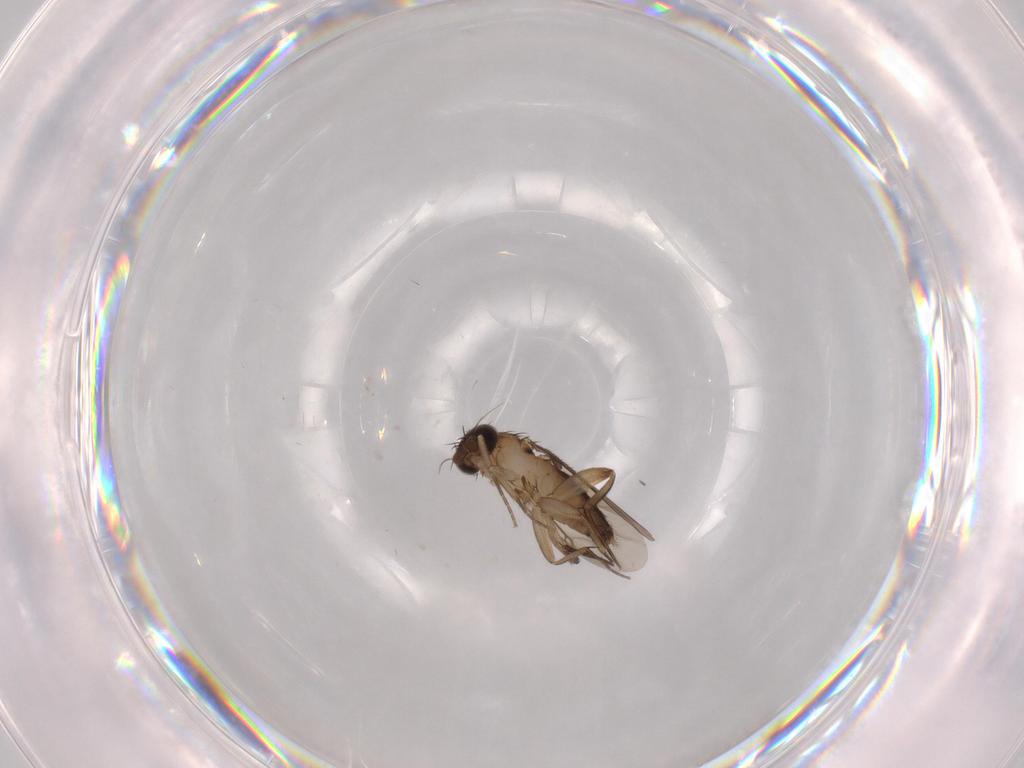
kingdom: Animalia
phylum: Arthropoda
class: Insecta
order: Diptera
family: Phoridae
